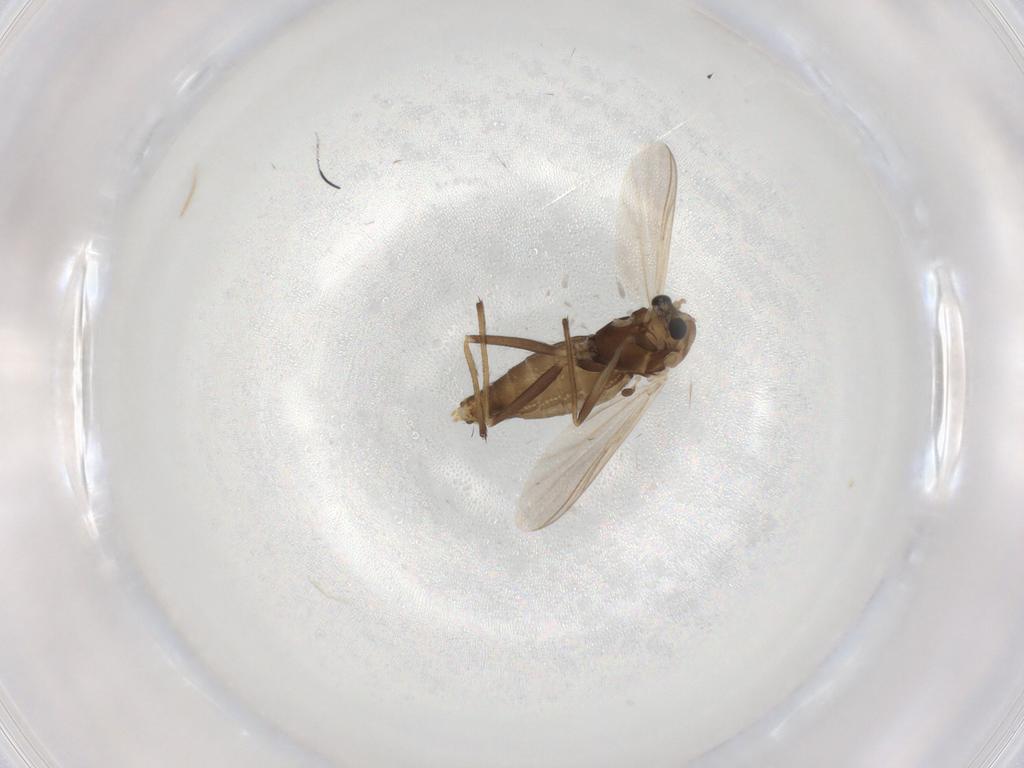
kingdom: Animalia
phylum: Arthropoda
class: Insecta
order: Diptera
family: Chironomidae
